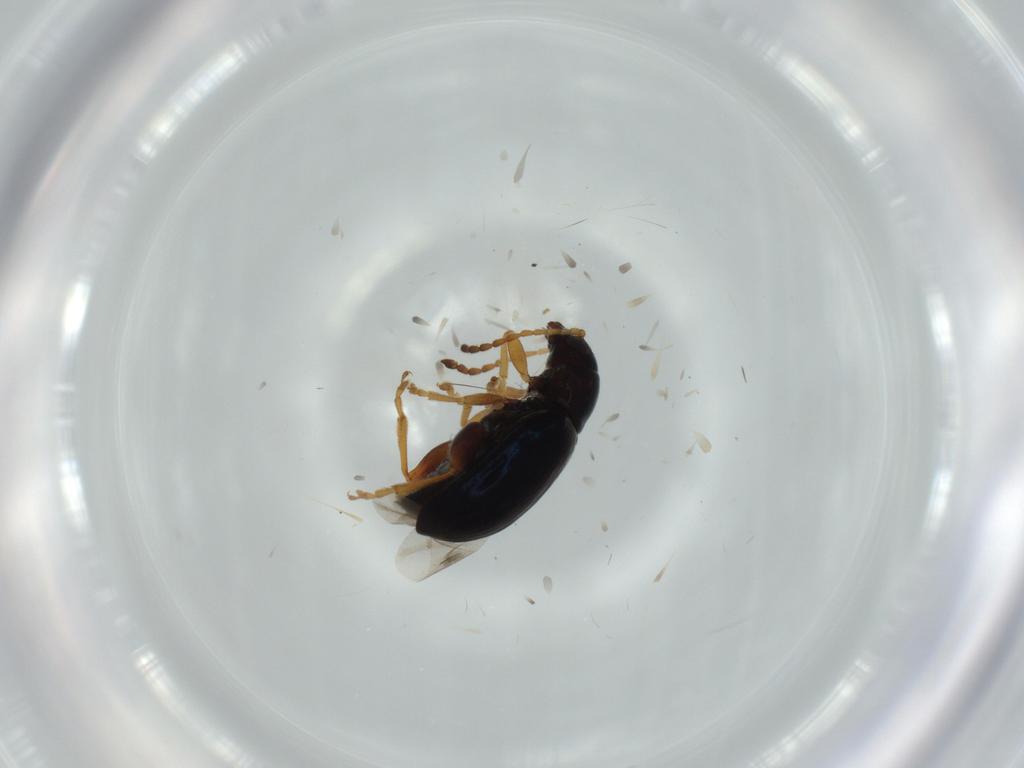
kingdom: Animalia
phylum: Arthropoda
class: Insecta
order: Coleoptera
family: Chrysomelidae
